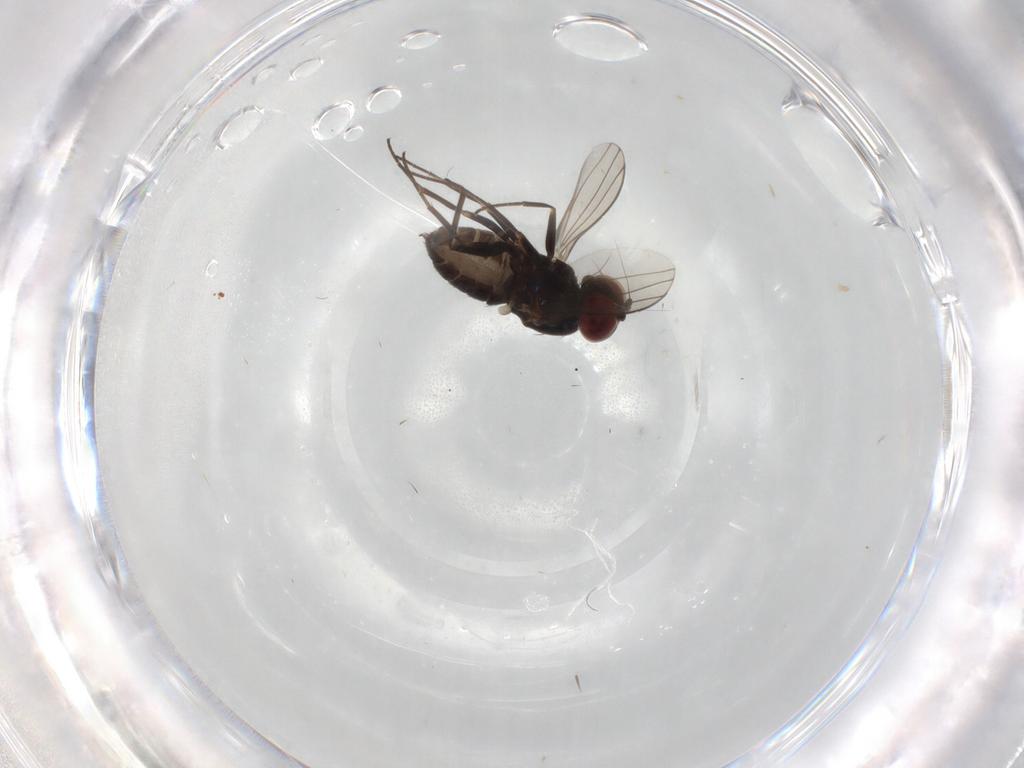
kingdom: Animalia
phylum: Arthropoda
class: Insecta
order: Diptera
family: Dolichopodidae
